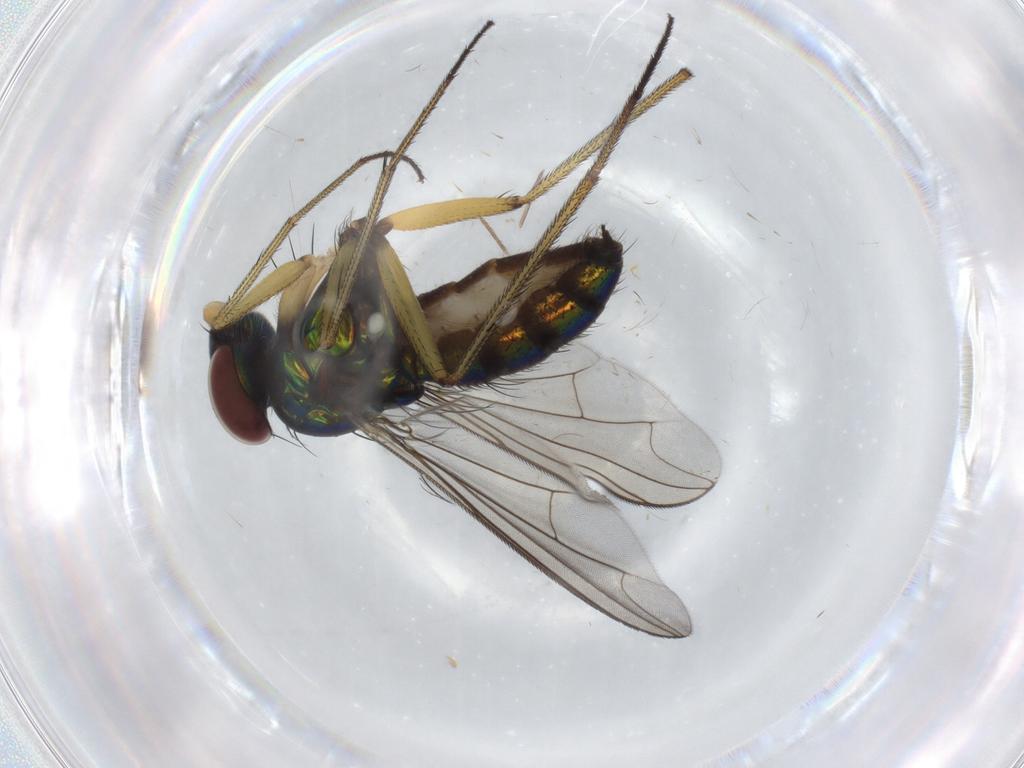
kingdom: Animalia
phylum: Arthropoda
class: Insecta
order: Diptera
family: Dolichopodidae
